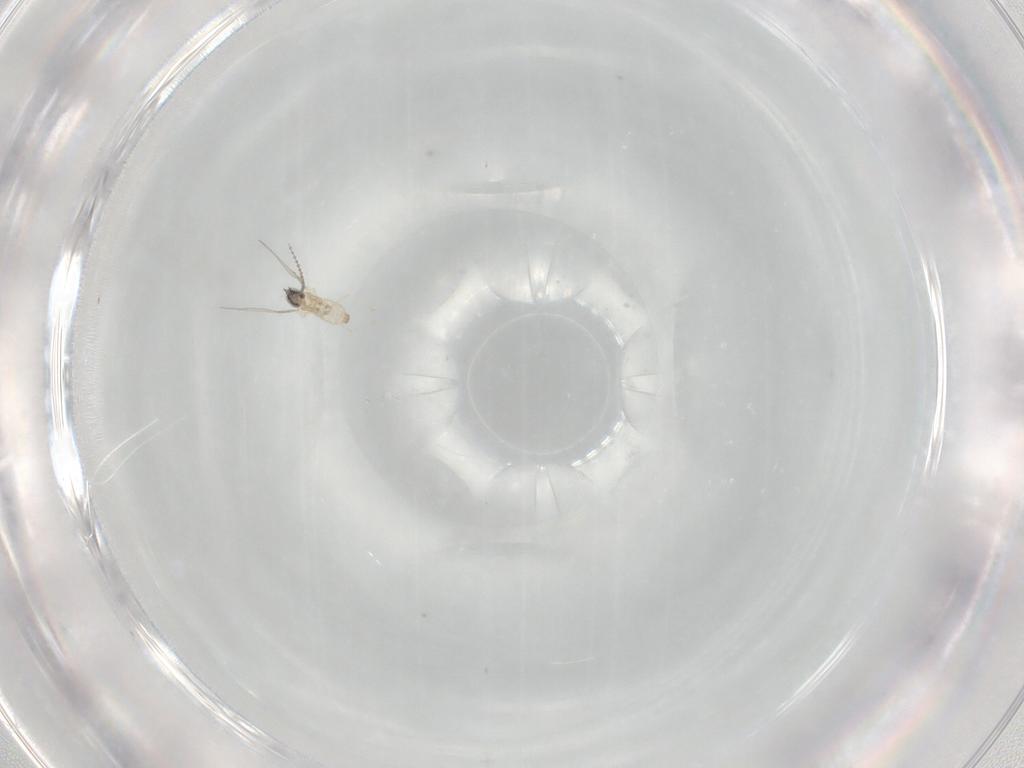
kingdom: Animalia
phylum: Arthropoda
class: Insecta
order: Diptera
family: Cecidomyiidae
